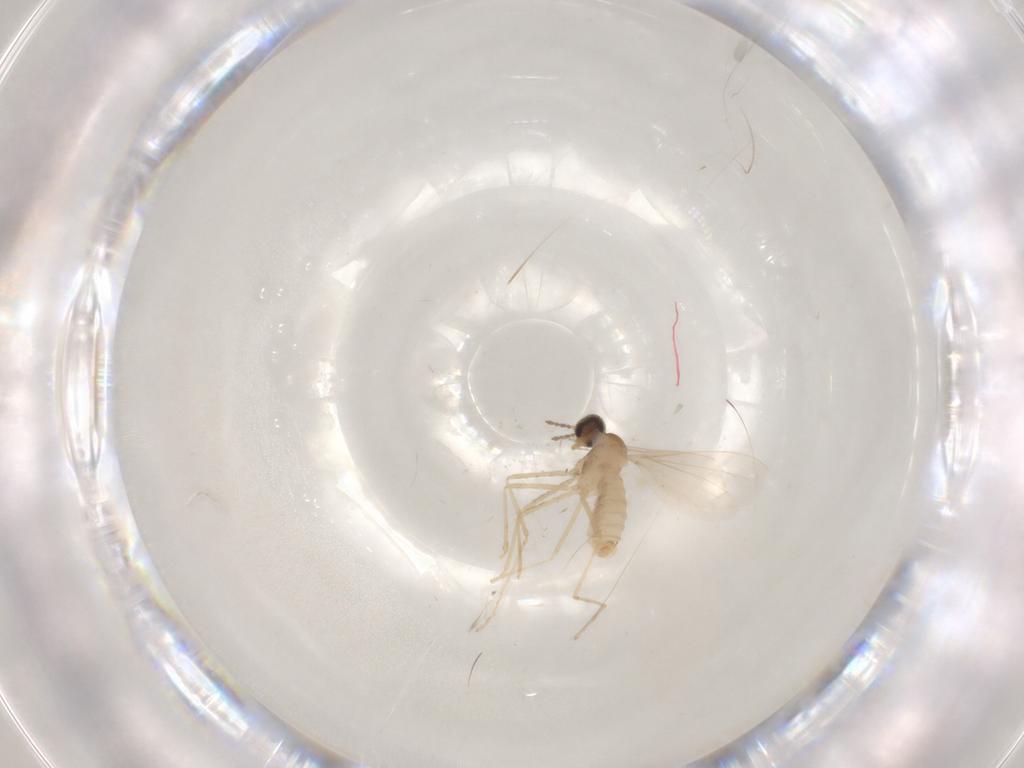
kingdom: Animalia
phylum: Arthropoda
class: Insecta
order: Diptera
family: Cecidomyiidae
